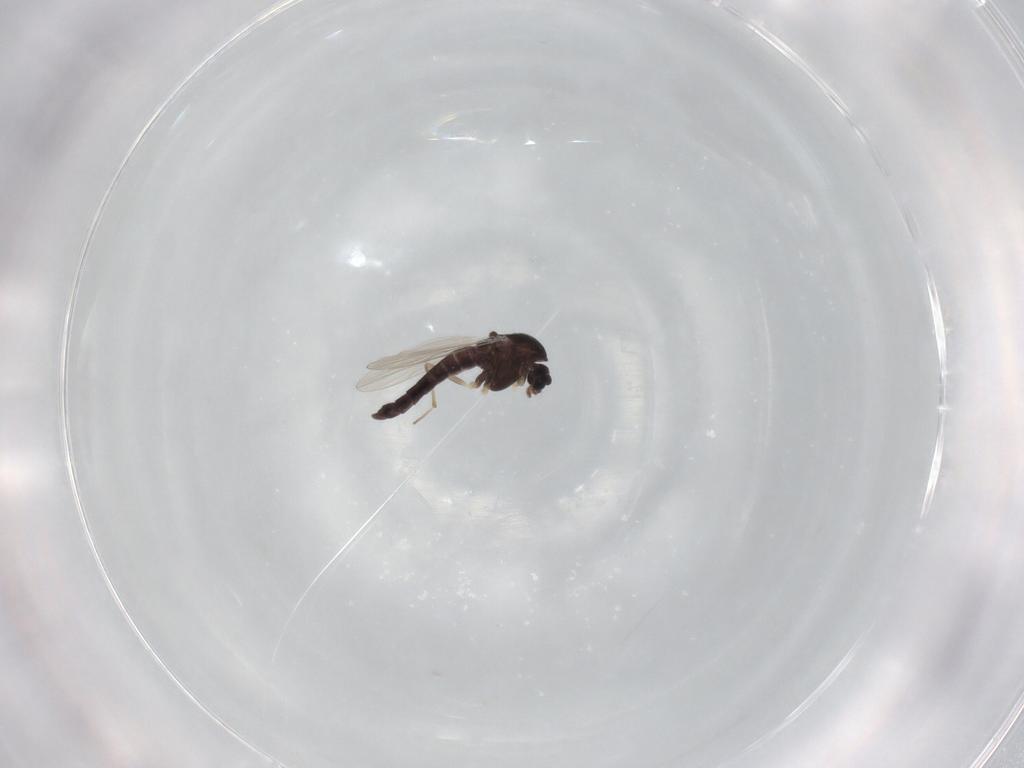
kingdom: Animalia
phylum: Arthropoda
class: Insecta
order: Diptera
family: Chironomidae
